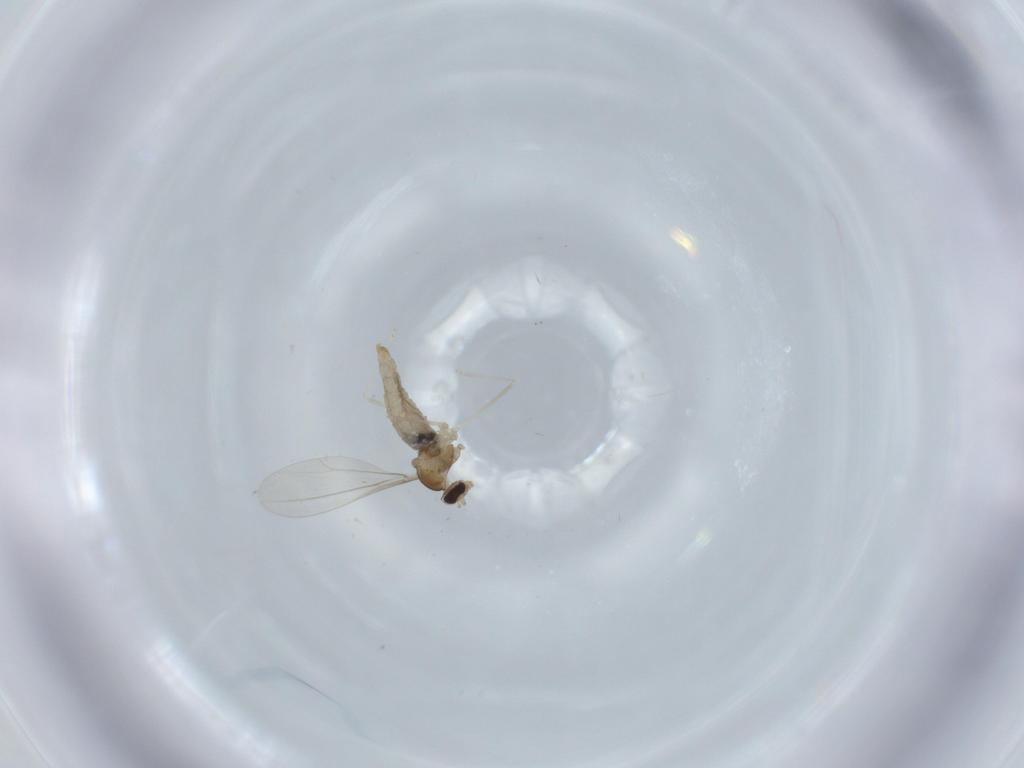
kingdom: Animalia
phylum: Arthropoda
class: Insecta
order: Diptera
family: Cecidomyiidae
